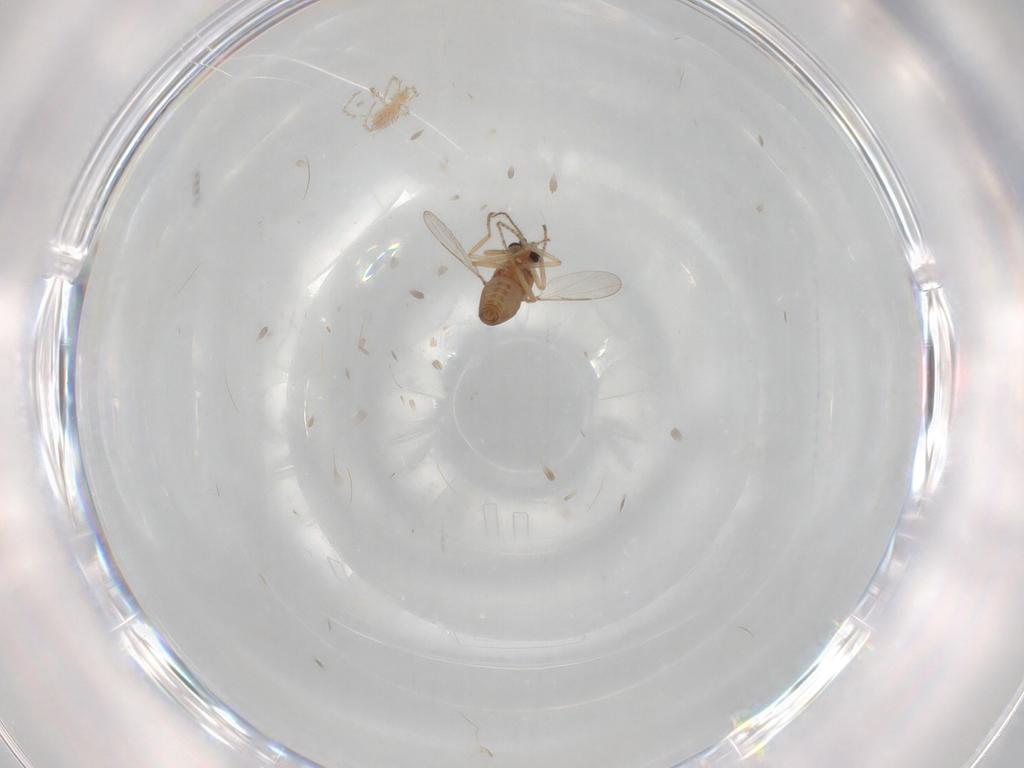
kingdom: Animalia
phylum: Arthropoda
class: Insecta
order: Diptera
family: Ceratopogonidae
